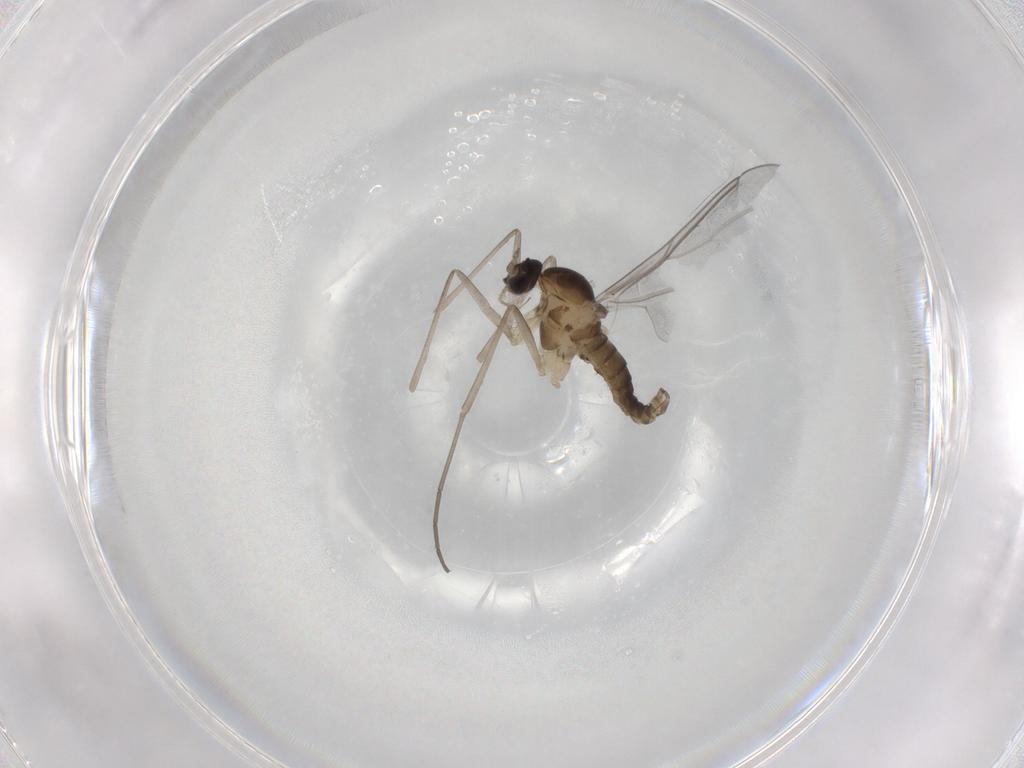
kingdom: Animalia
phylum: Arthropoda
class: Insecta
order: Diptera
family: Cecidomyiidae
